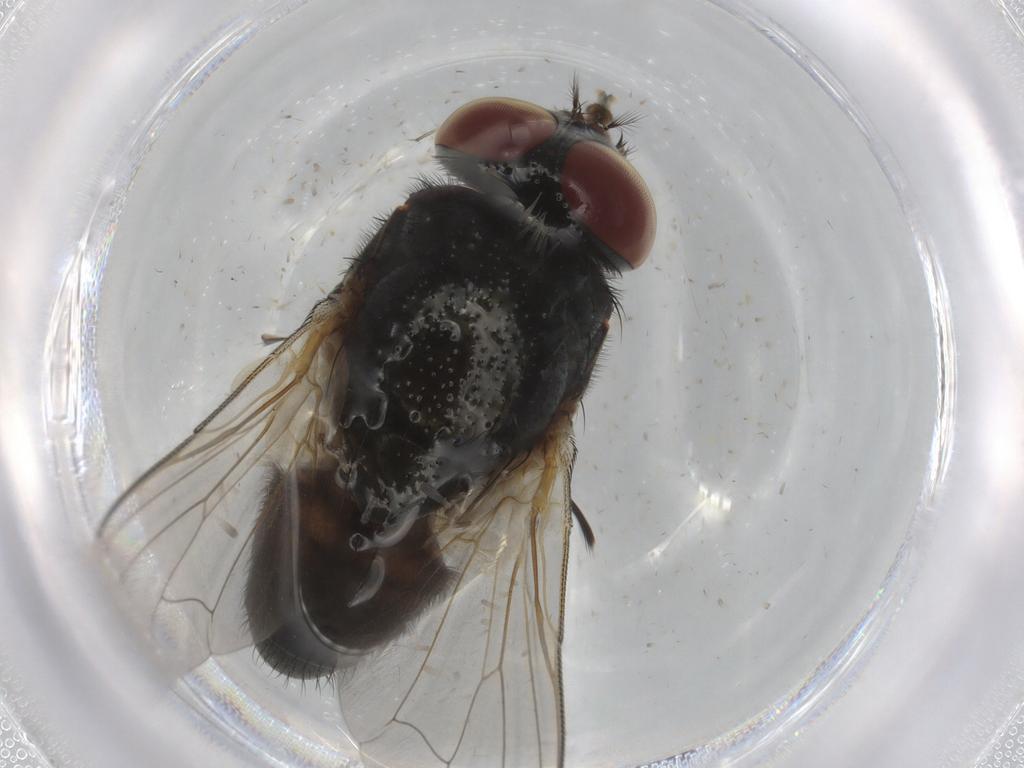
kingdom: Animalia
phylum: Arthropoda
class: Insecta
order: Diptera
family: Muscidae
